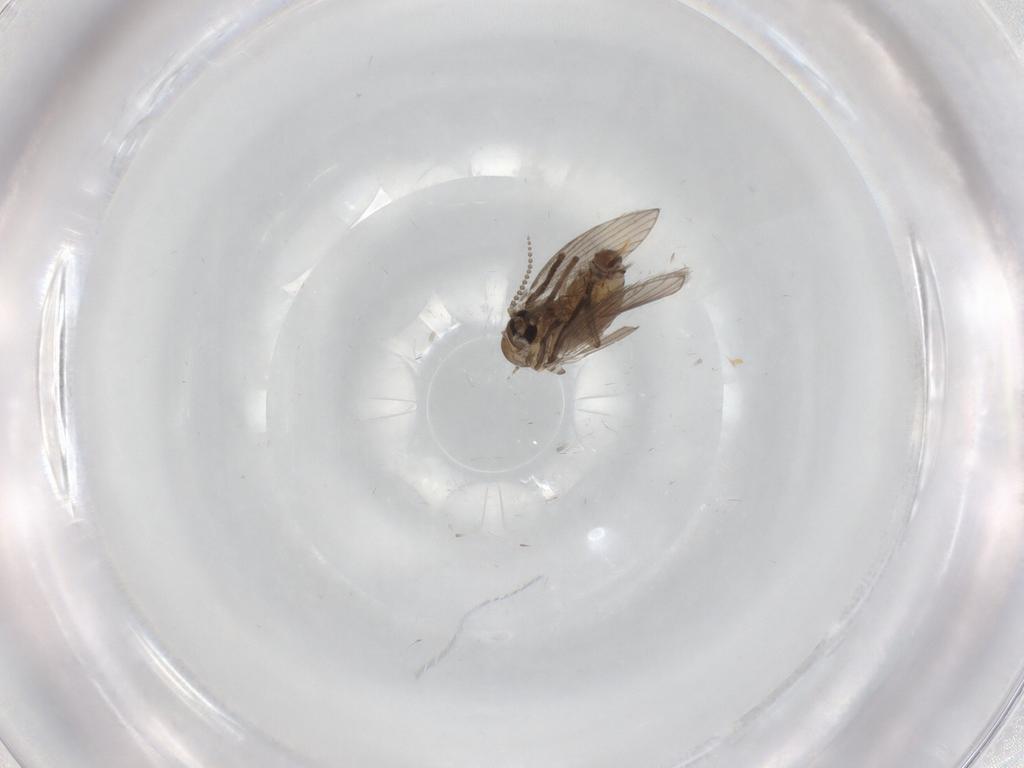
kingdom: Animalia
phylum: Arthropoda
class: Insecta
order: Diptera
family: Psychodidae
